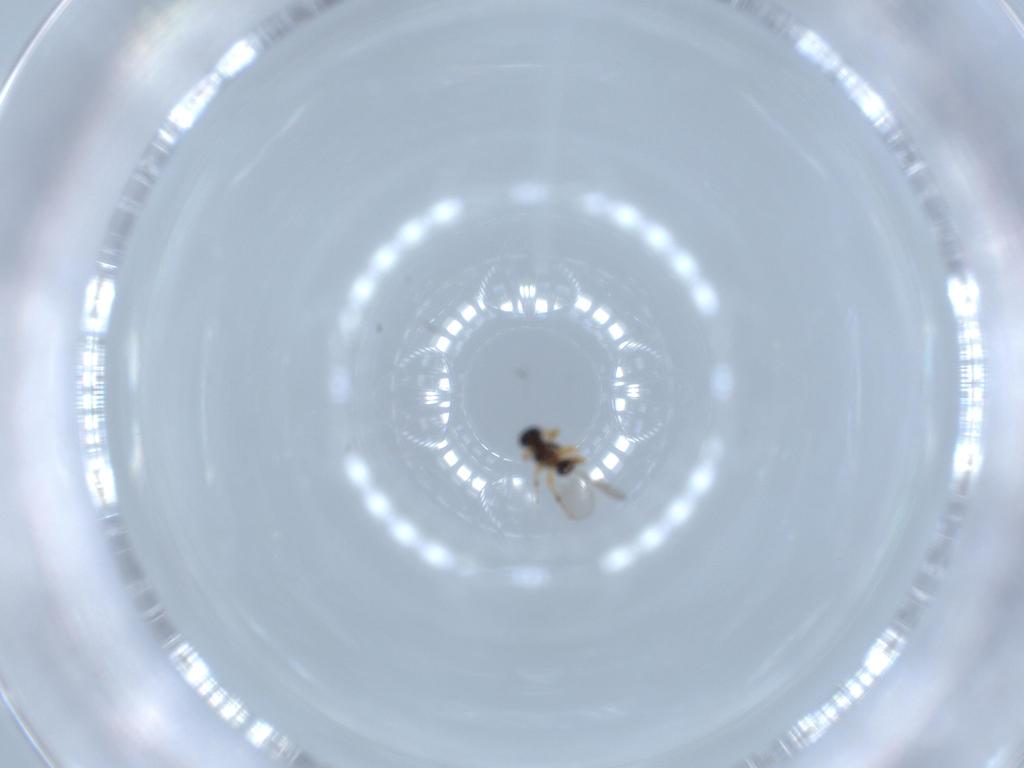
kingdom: Animalia
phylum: Arthropoda
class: Insecta
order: Hymenoptera
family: Platygastridae
